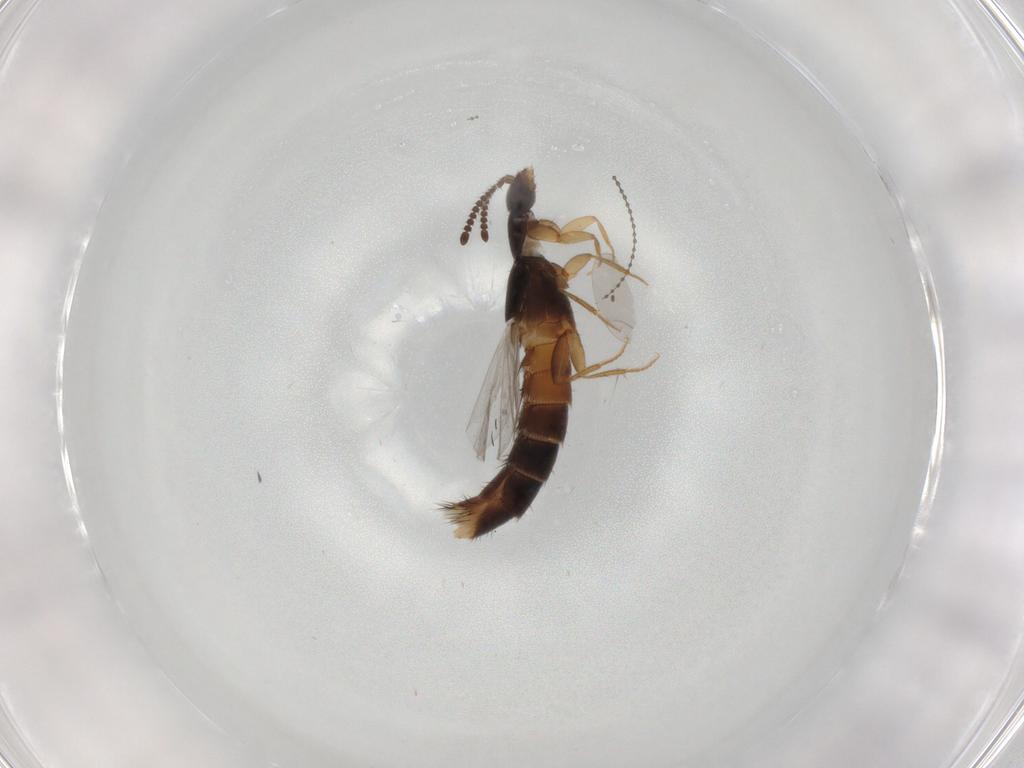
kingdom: Animalia
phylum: Arthropoda
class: Insecta
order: Coleoptera
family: Staphylinidae
